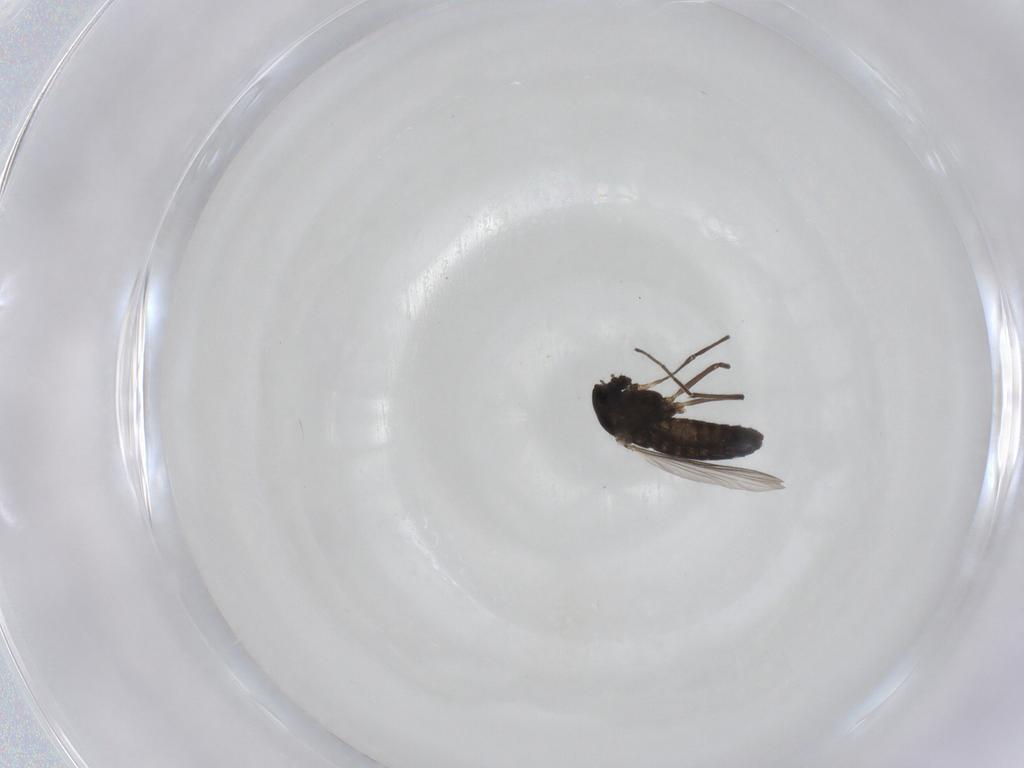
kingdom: Animalia
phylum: Arthropoda
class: Insecta
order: Diptera
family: Chironomidae
